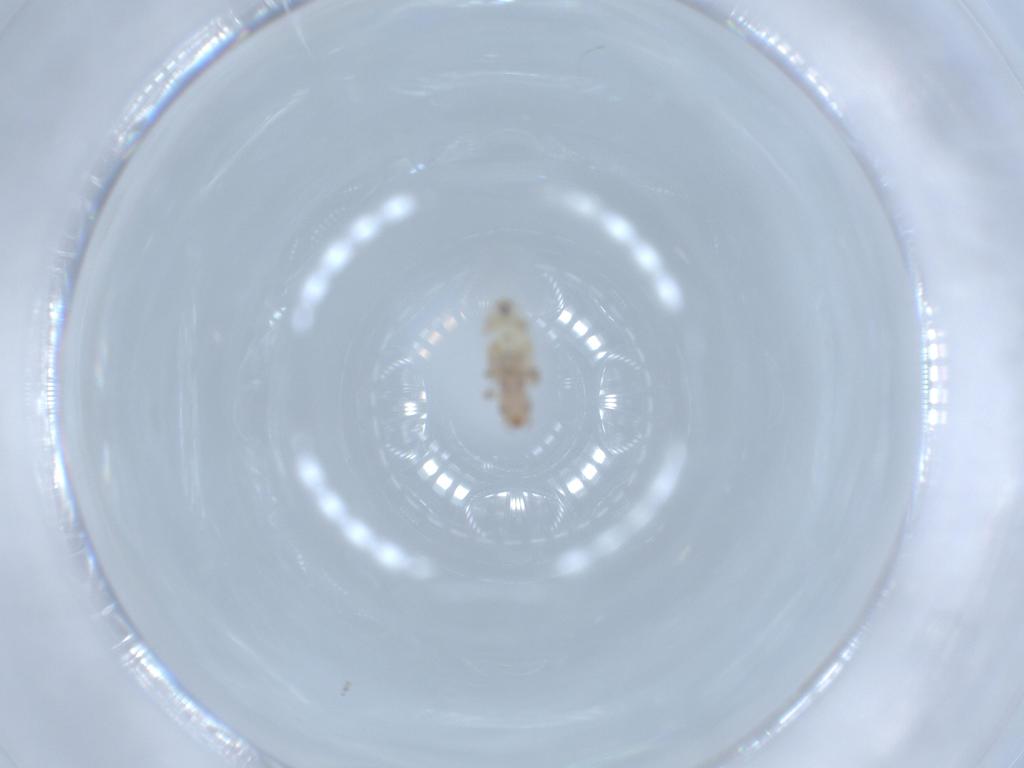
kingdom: Animalia
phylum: Arthropoda
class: Insecta
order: Psocodea
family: Liposcelididae
